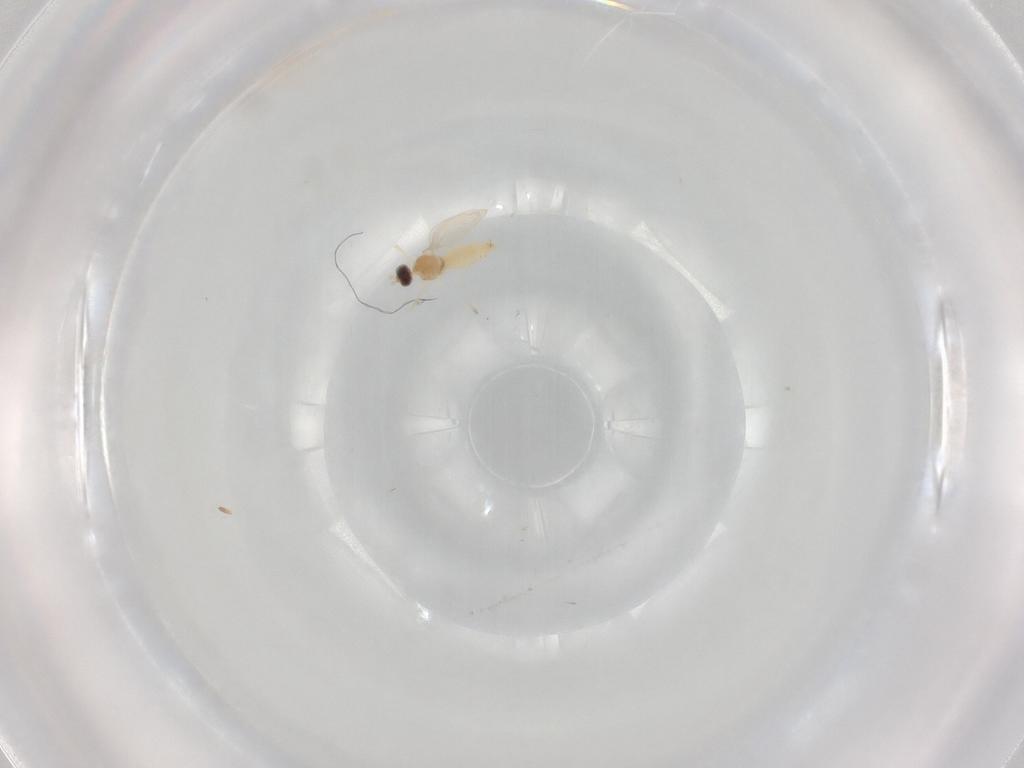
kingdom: Animalia
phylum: Arthropoda
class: Insecta
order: Diptera
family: Cecidomyiidae
